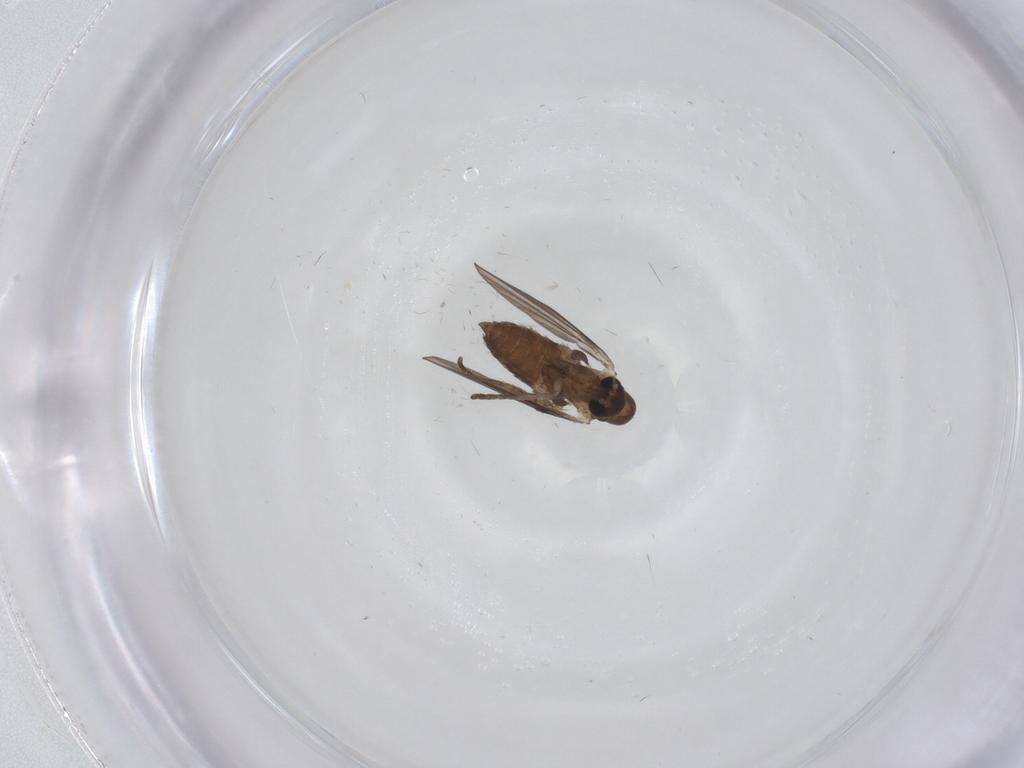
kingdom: Animalia
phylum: Arthropoda
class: Insecta
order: Diptera
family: Psychodidae
